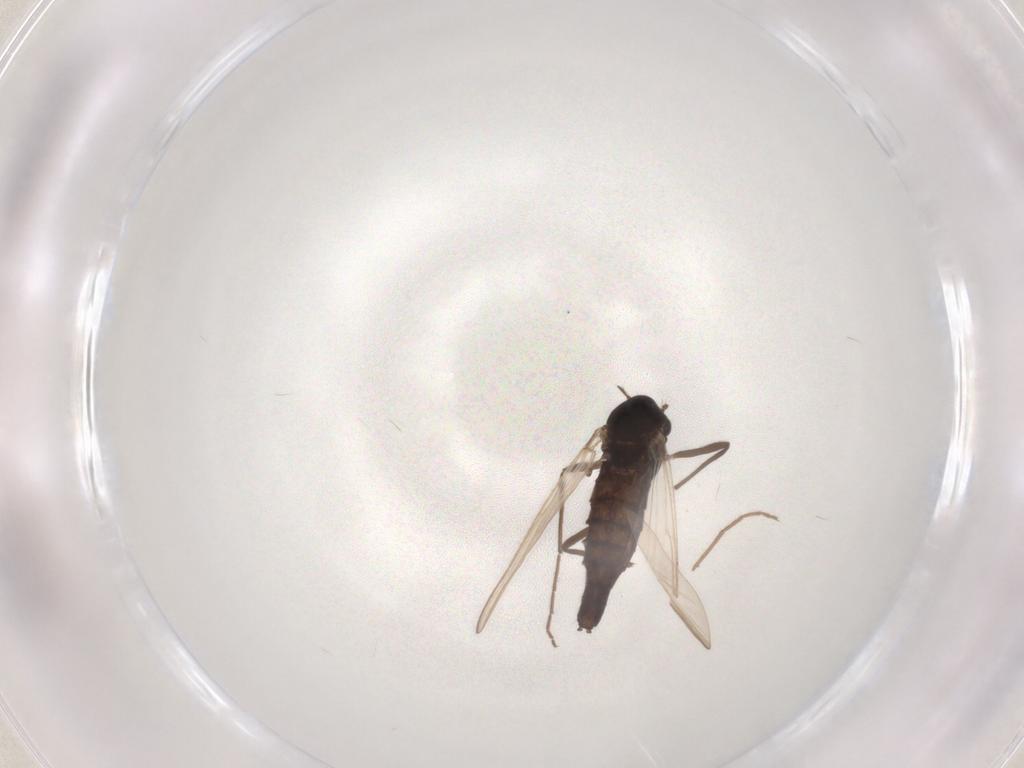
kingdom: Animalia
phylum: Arthropoda
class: Insecta
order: Diptera
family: Chironomidae
